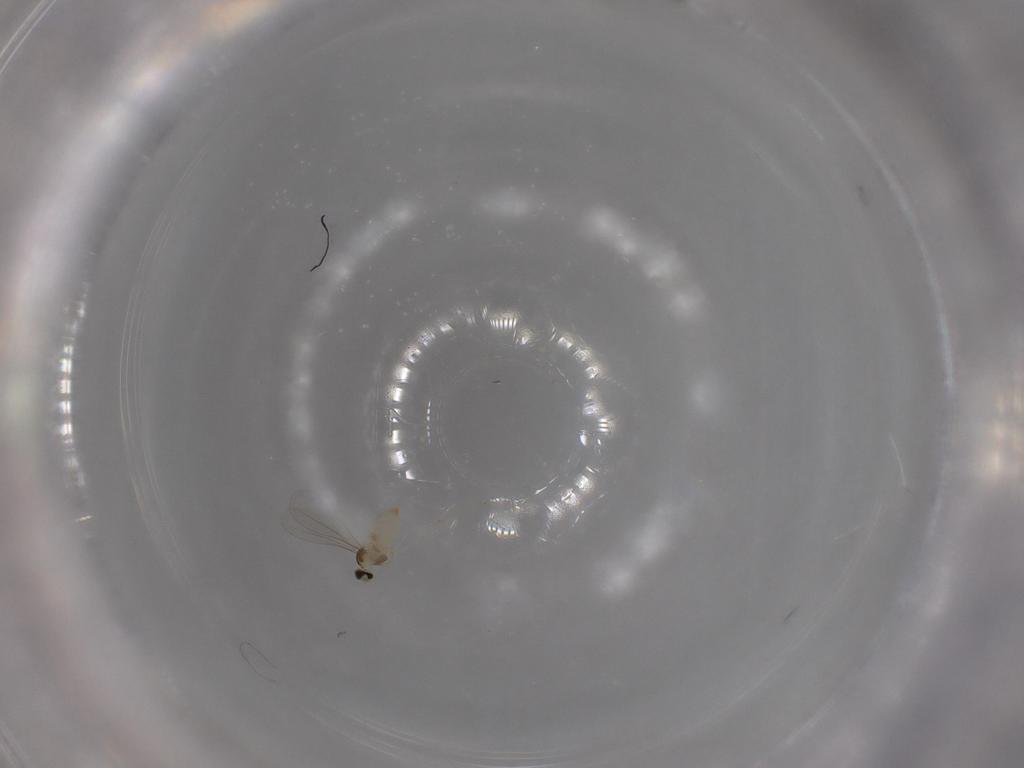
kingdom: Animalia
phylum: Arthropoda
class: Insecta
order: Diptera
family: Cecidomyiidae
